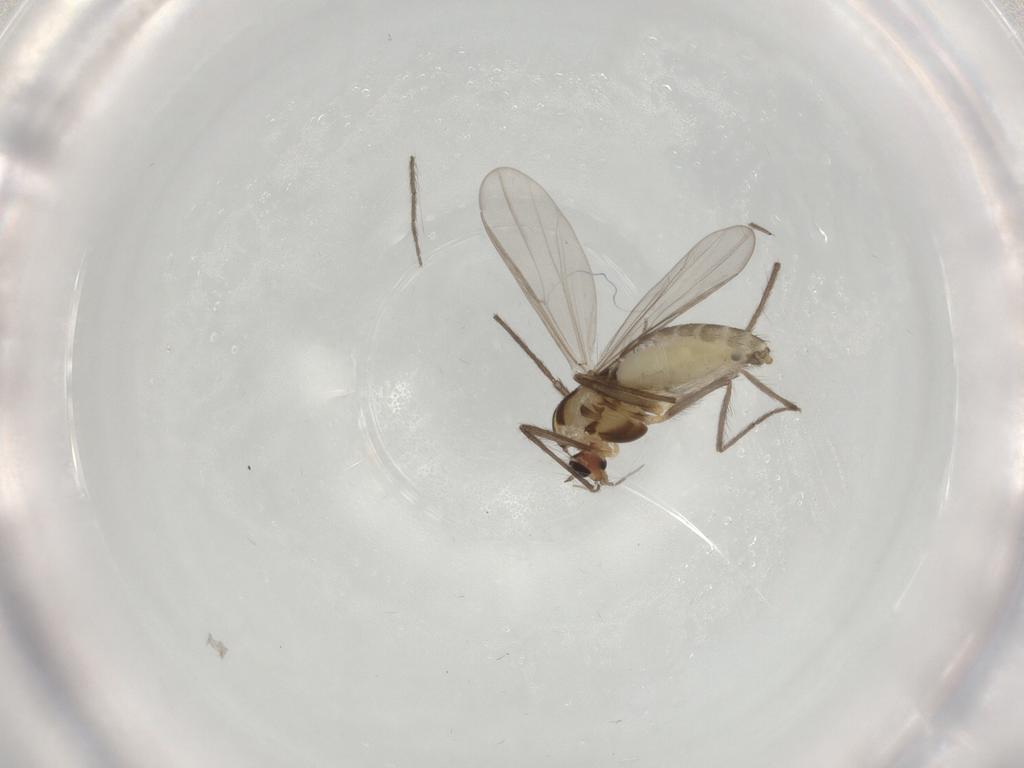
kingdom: Animalia
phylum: Arthropoda
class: Insecta
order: Diptera
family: Chironomidae
